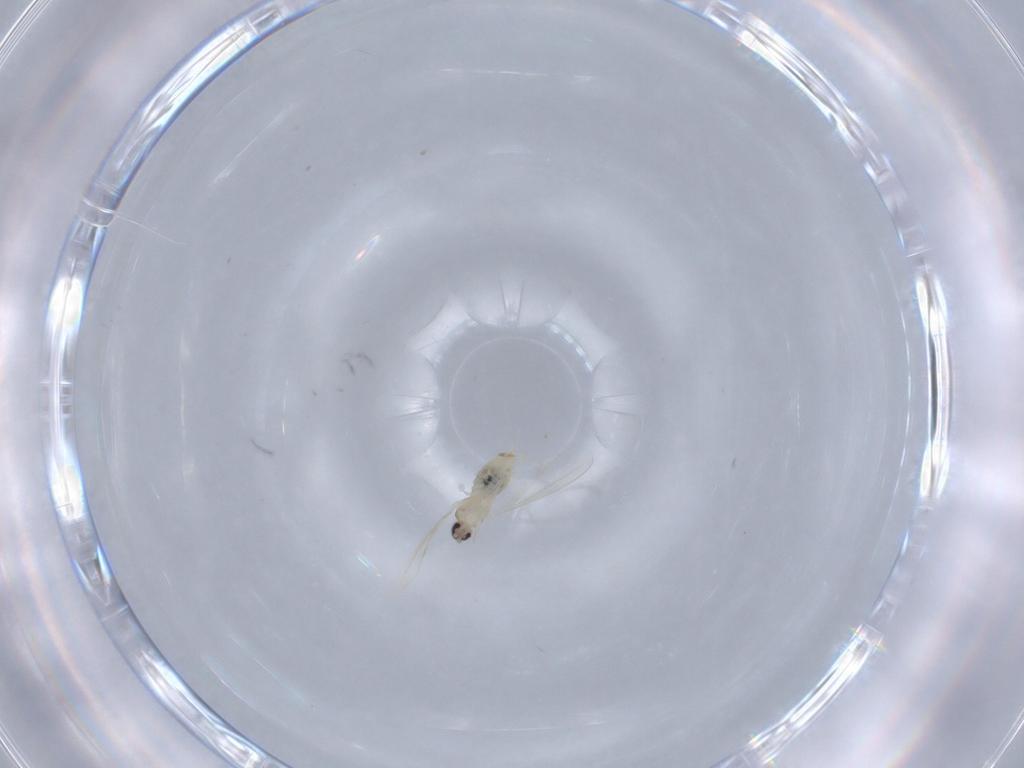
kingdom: Animalia
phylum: Arthropoda
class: Insecta
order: Diptera
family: Cecidomyiidae
